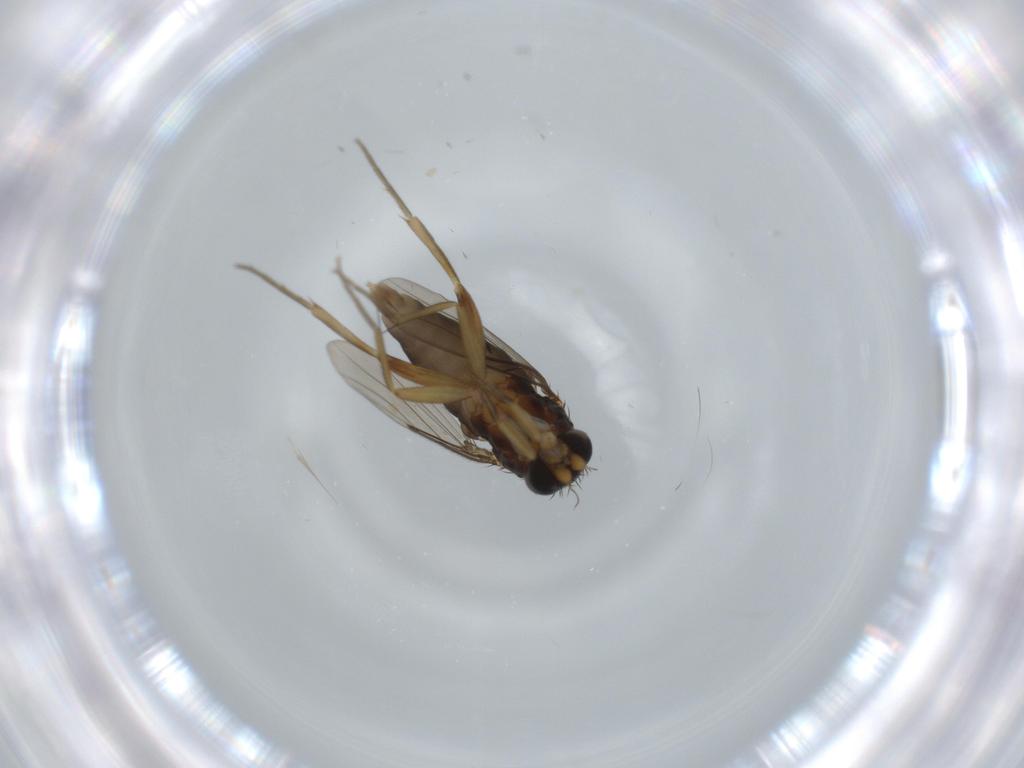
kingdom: Animalia
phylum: Arthropoda
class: Insecta
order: Diptera
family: Phoridae
